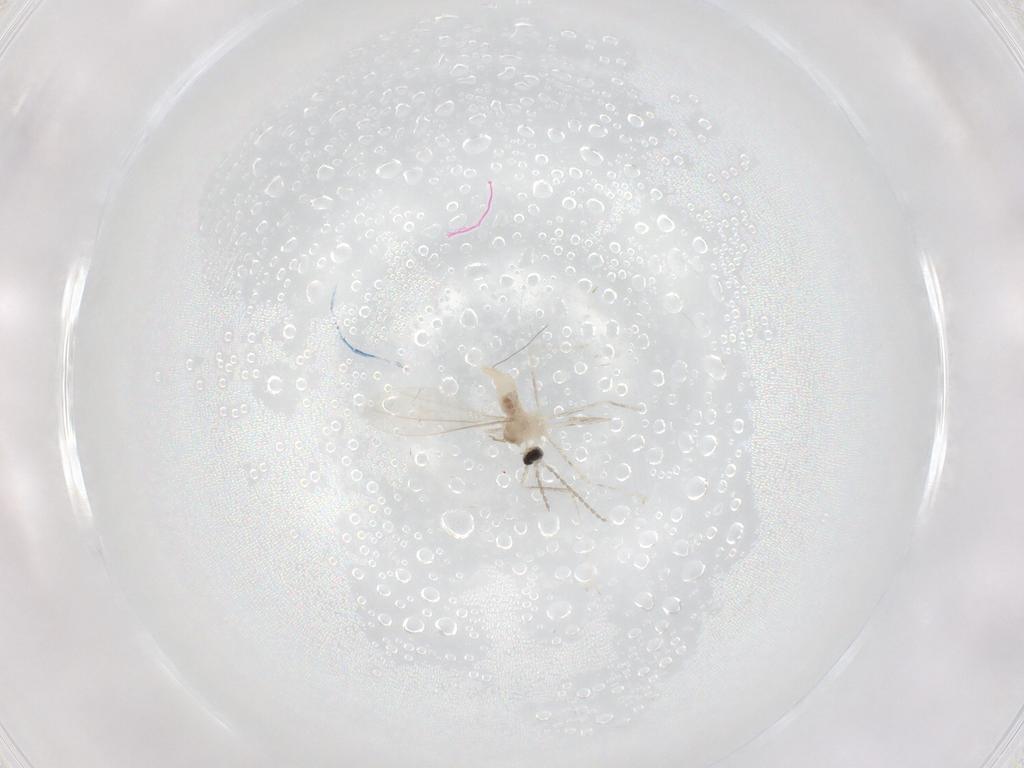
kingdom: Animalia
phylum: Arthropoda
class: Insecta
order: Diptera
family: Cecidomyiidae
